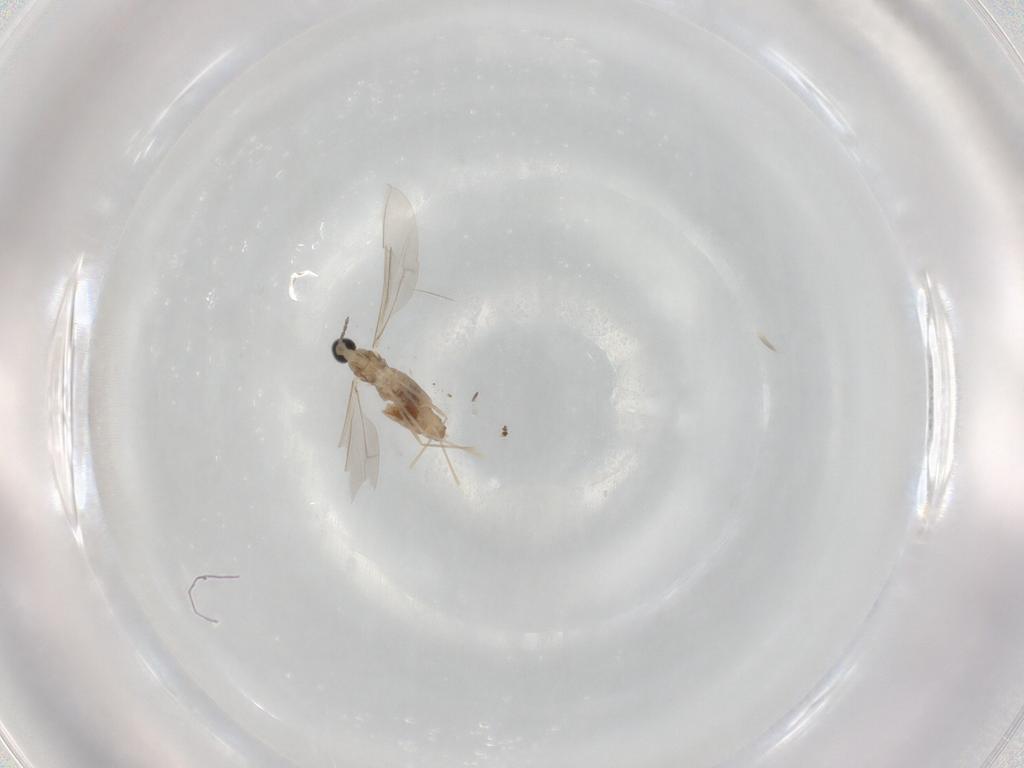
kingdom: Animalia
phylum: Arthropoda
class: Insecta
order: Diptera
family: Cecidomyiidae
